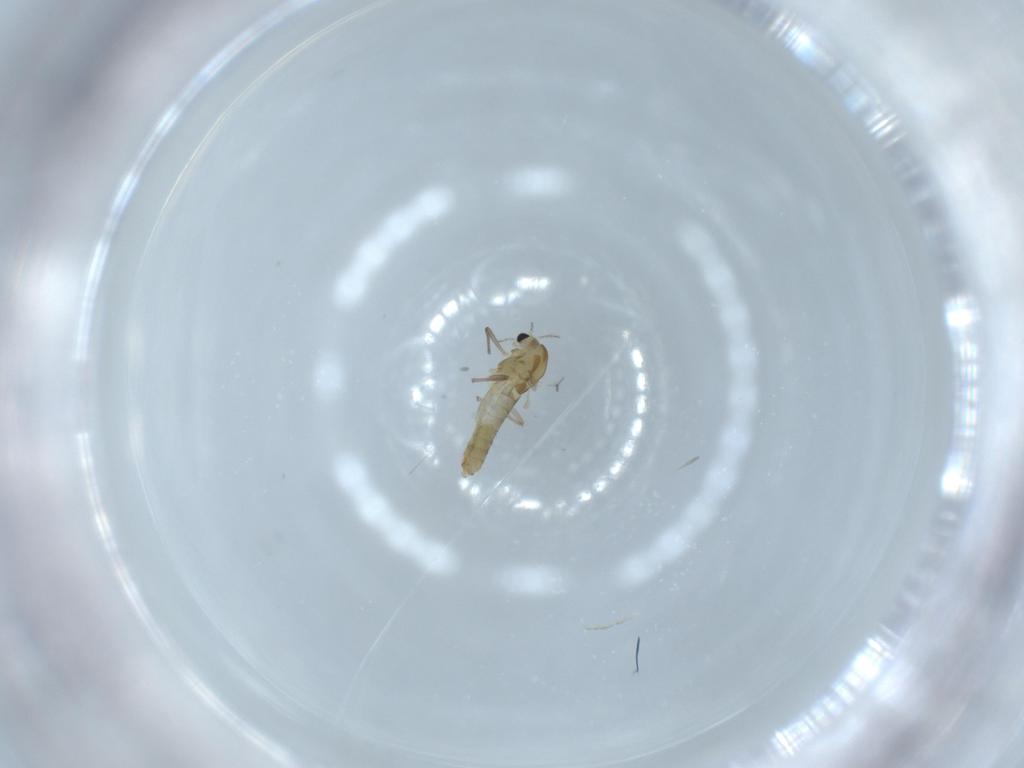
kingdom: Animalia
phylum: Arthropoda
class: Insecta
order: Diptera
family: Chironomidae
